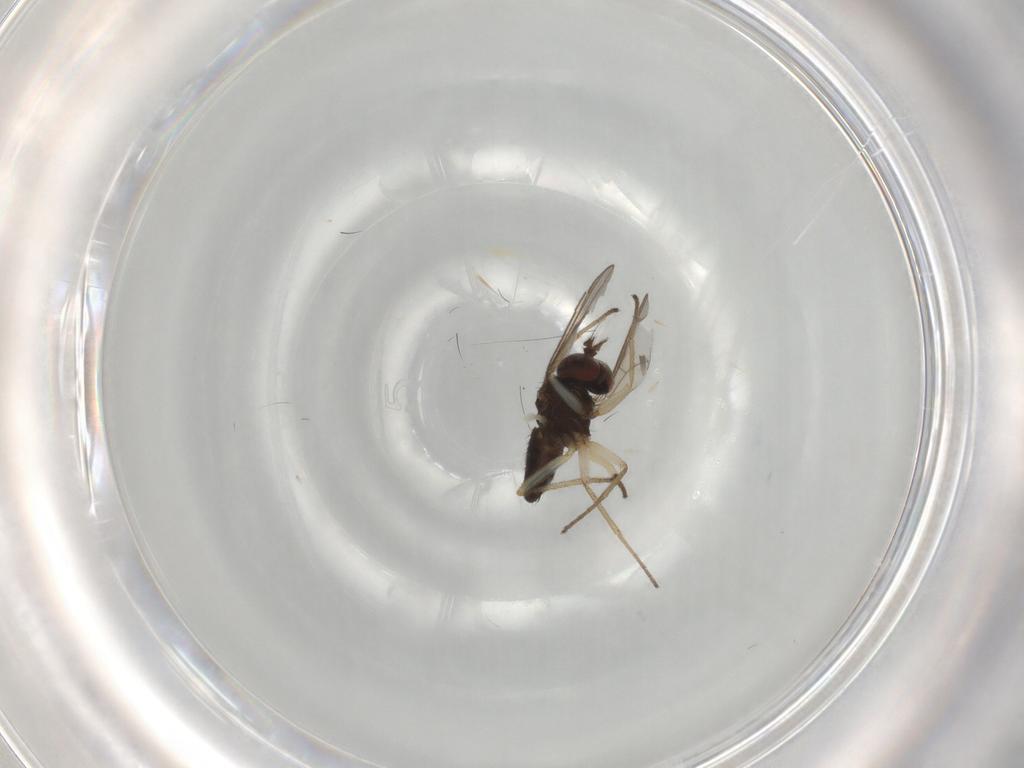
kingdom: Animalia
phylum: Arthropoda
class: Insecta
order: Diptera
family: Dolichopodidae
